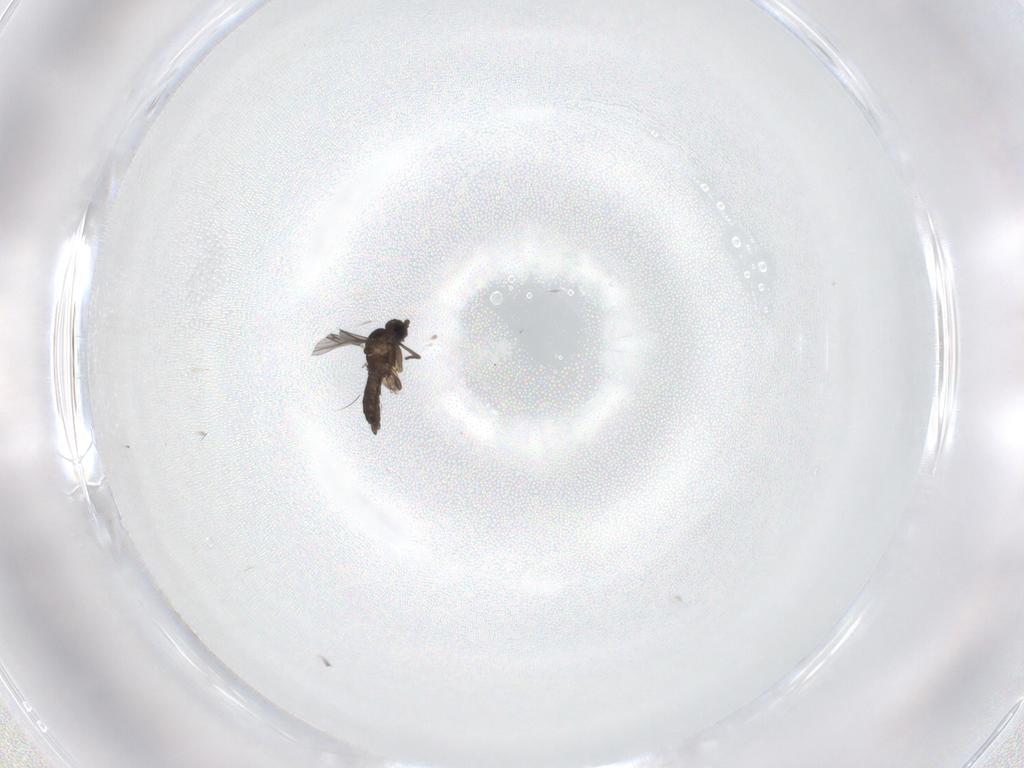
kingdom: Animalia
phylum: Arthropoda
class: Insecta
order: Diptera
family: Sciaridae
